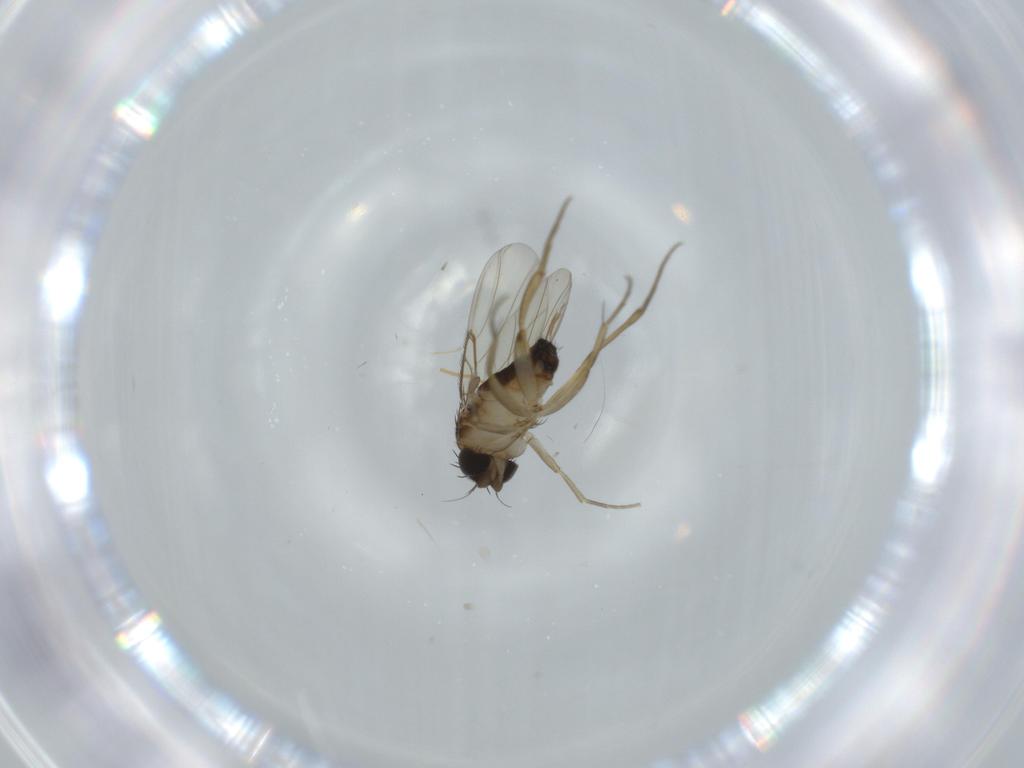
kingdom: Animalia
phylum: Arthropoda
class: Insecta
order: Diptera
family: Phoridae
